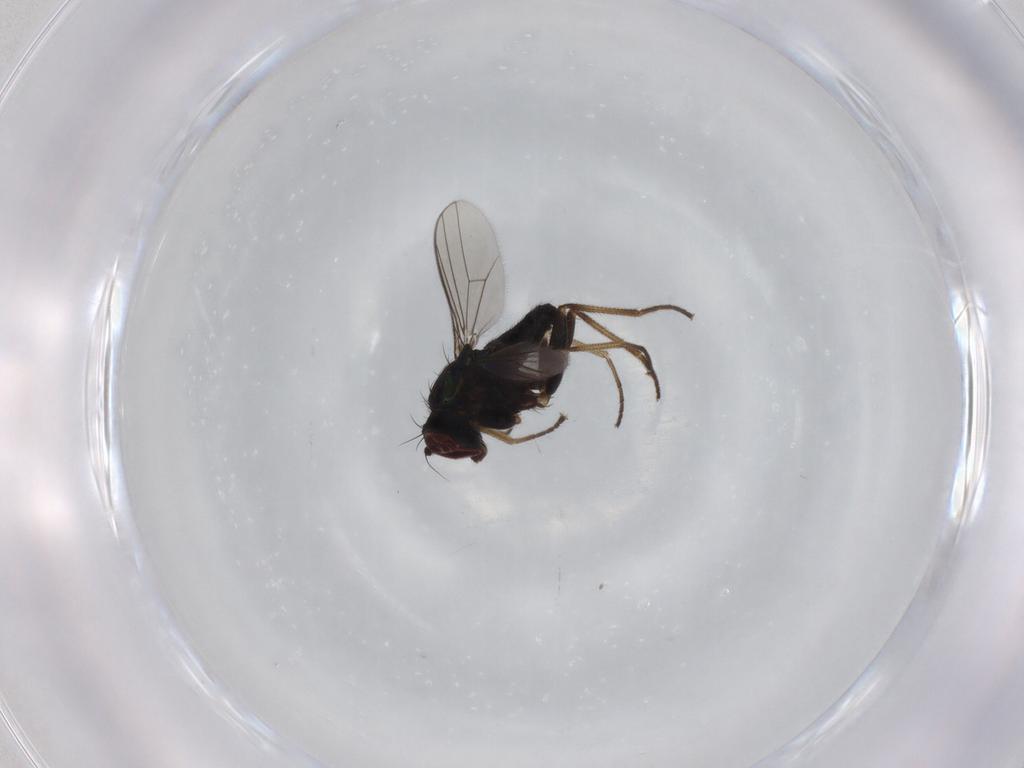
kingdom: Animalia
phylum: Arthropoda
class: Insecta
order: Diptera
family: Dolichopodidae
